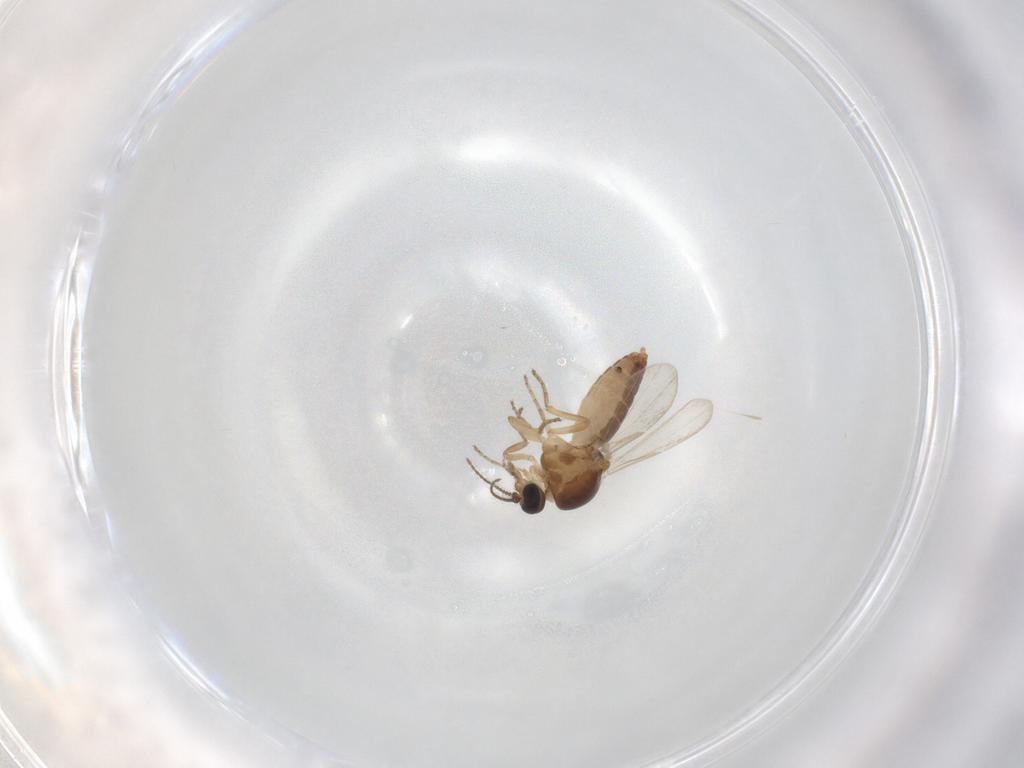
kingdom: Animalia
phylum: Arthropoda
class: Insecta
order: Diptera
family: Ceratopogonidae
